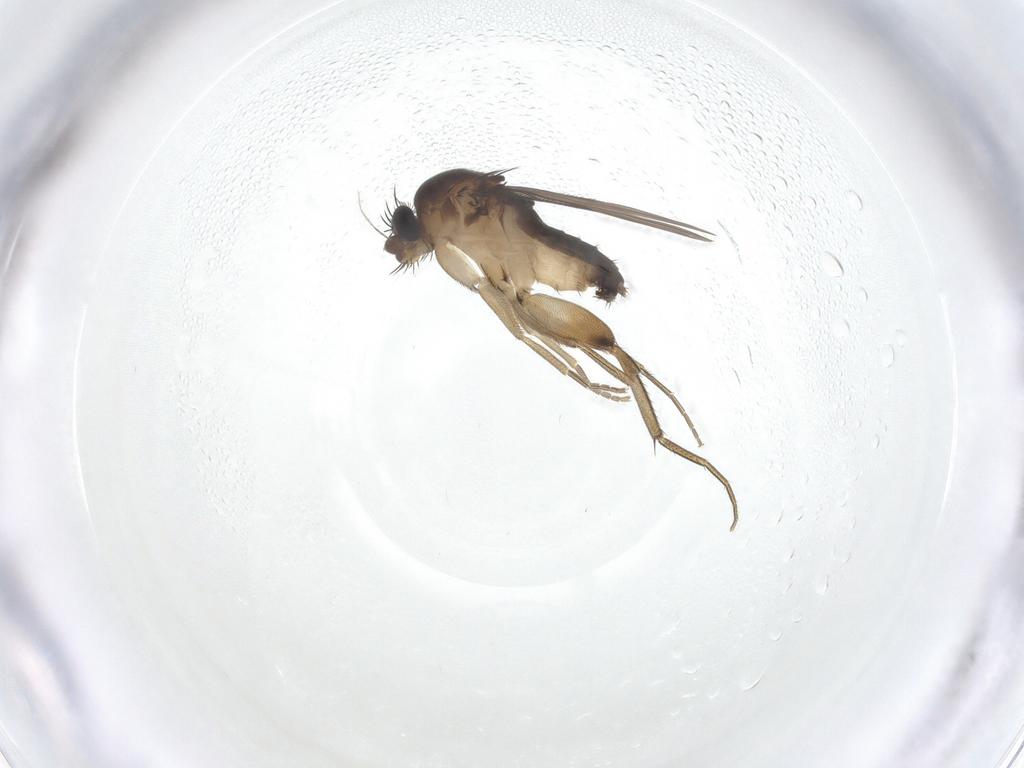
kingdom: Animalia
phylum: Arthropoda
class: Insecta
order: Diptera
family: Phoridae
